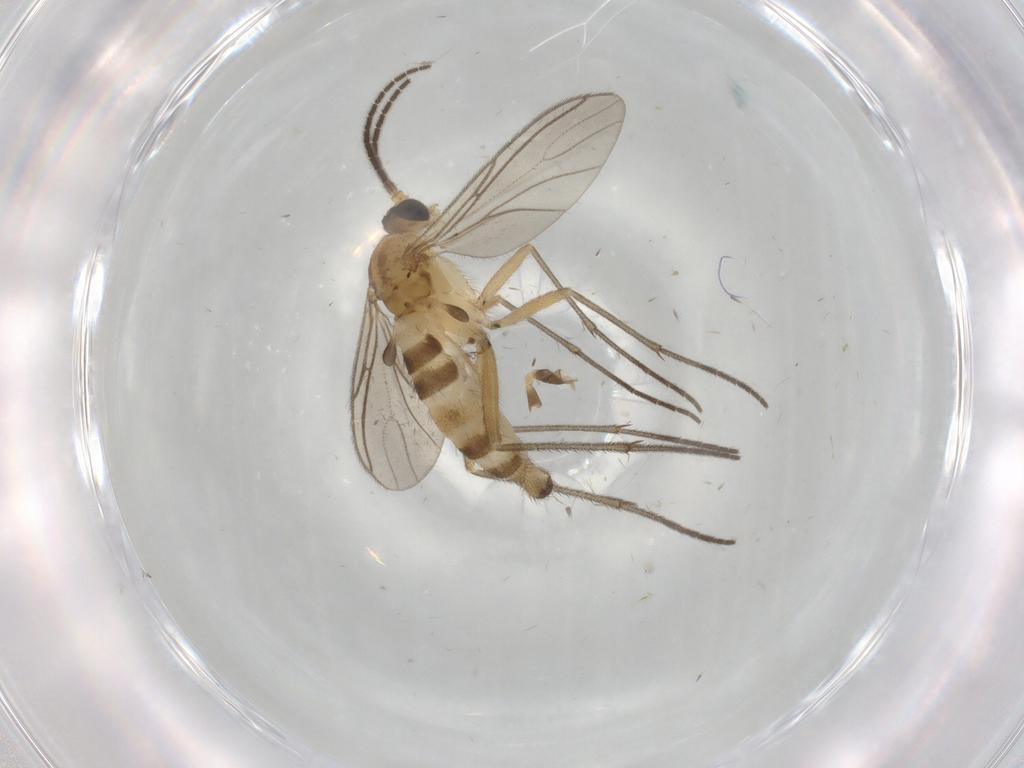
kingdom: Animalia
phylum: Arthropoda
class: Insecta
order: Diptera
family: Sciaridae
